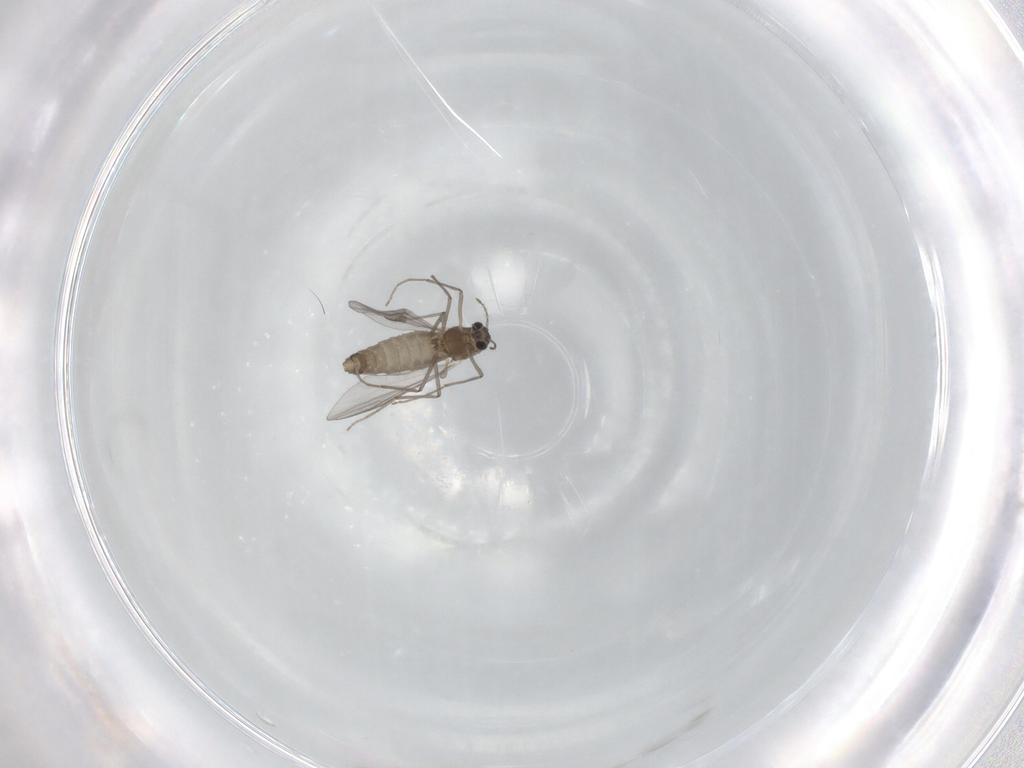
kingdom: Animalia
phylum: Arthropoda
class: Insecta
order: Diptera
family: Chironomidae
